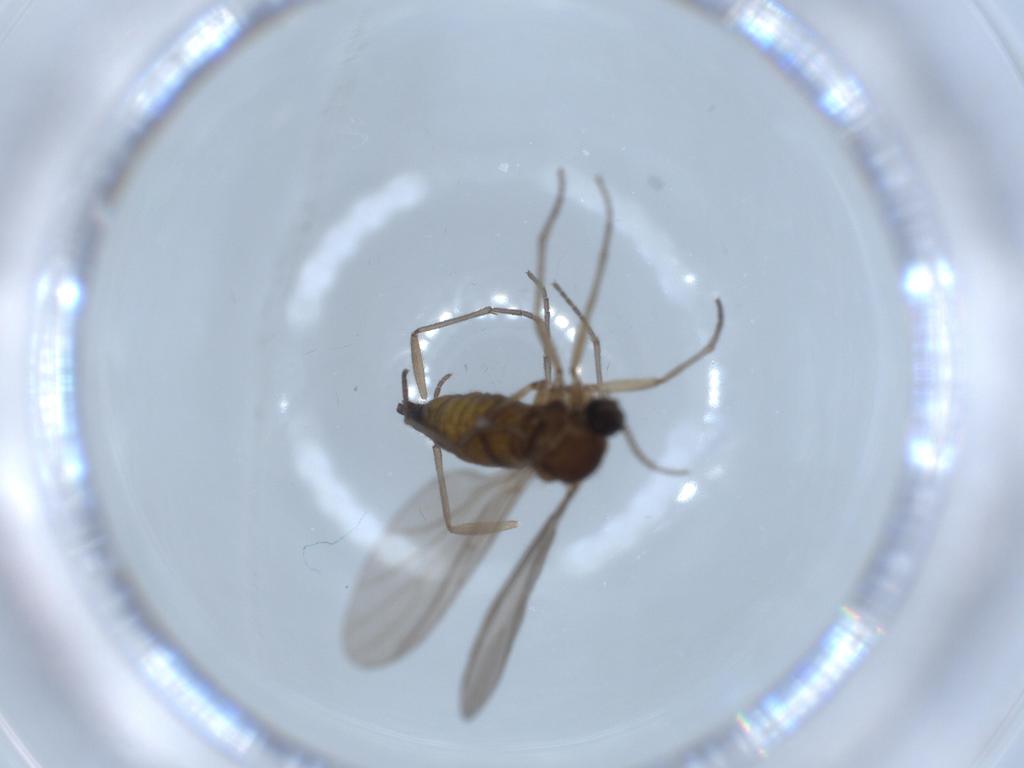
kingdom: Animalia
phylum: Arthropoda
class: Insecta
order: Diptera
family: Sciaridae
